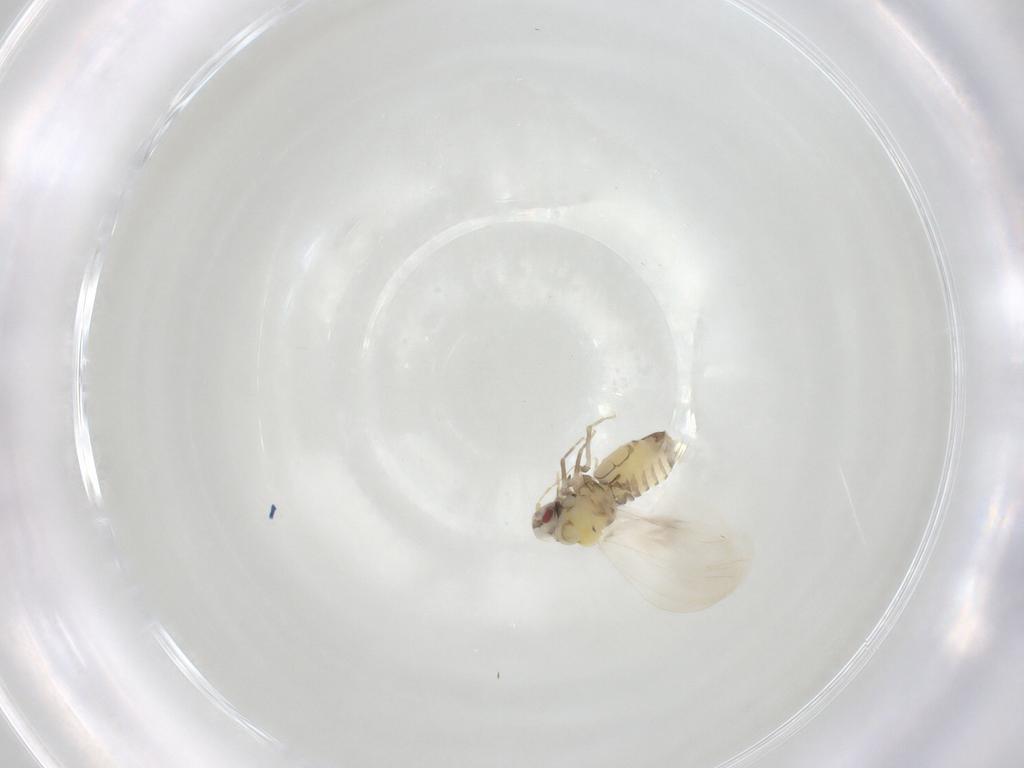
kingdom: Animalia
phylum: Arthropoda
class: Insecta
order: Hemiptera
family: Aleyrodidae
